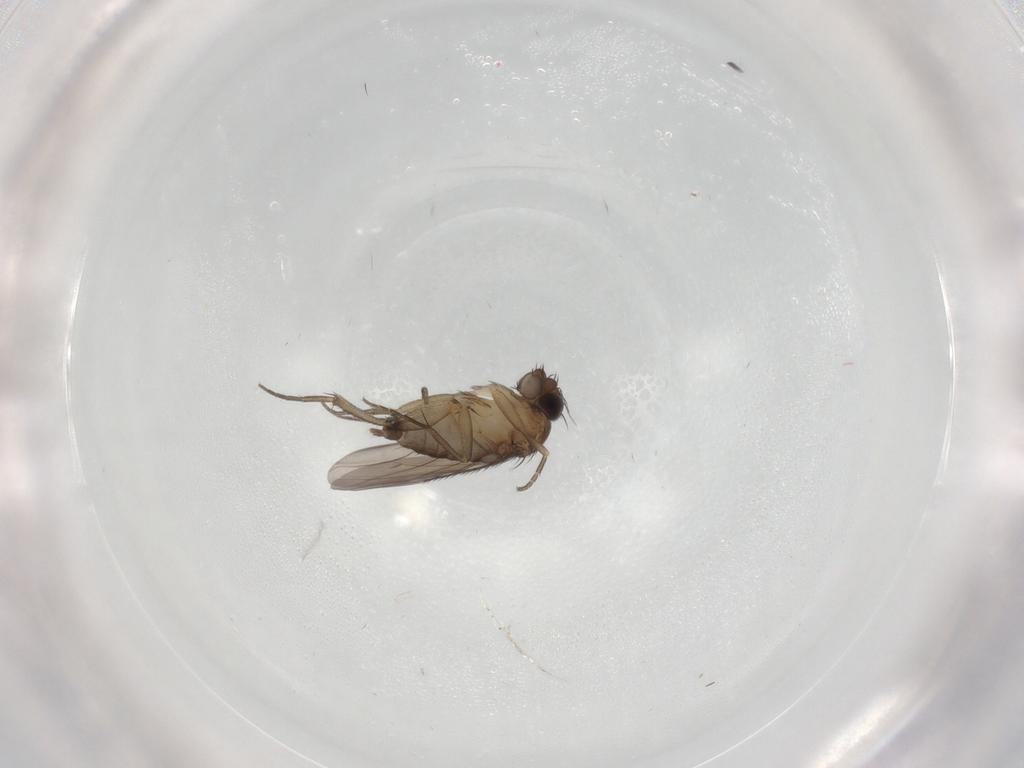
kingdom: Animalia
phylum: Arthropoda
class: Insecta
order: Diptera
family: Phoridae
